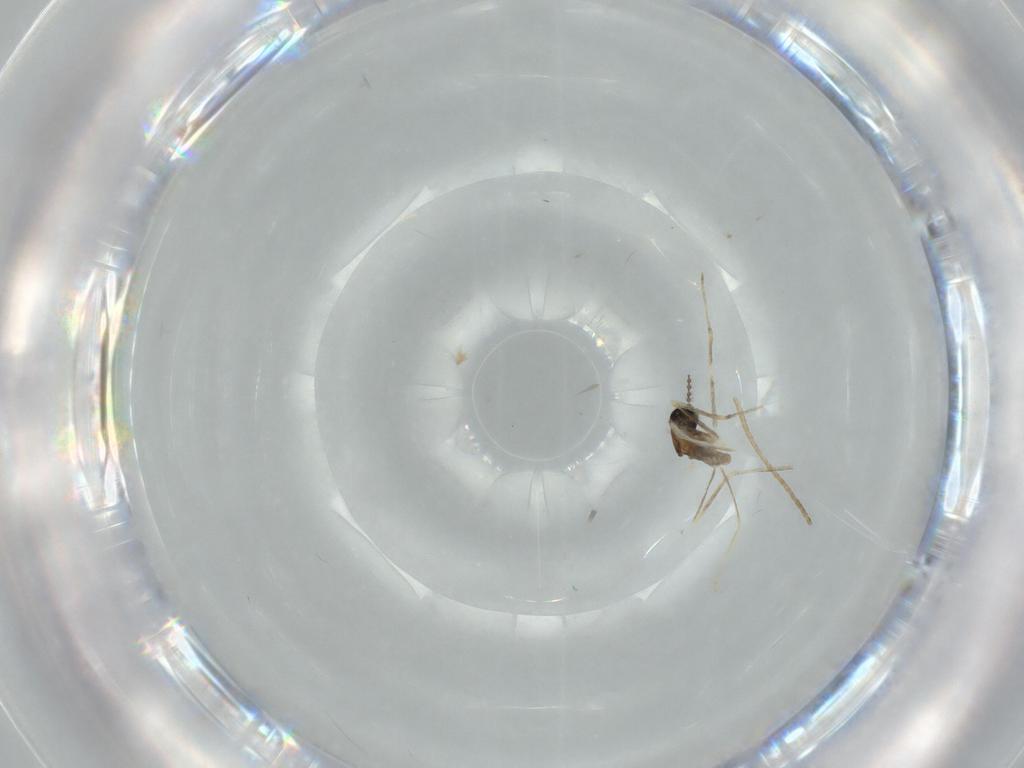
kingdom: Animalia
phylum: Arthropoda
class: Insecta
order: Diptera
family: Cecidomyiidae
